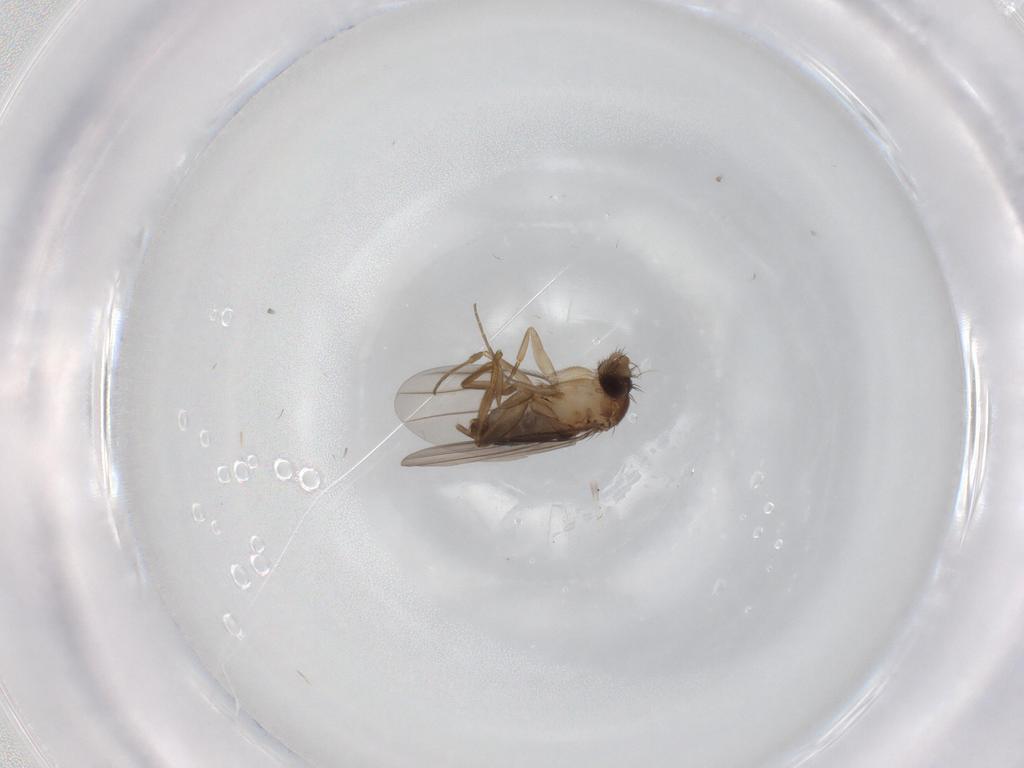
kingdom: Animalia
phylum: Arthropoda
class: Insecta
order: Diptera
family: Phoridae
